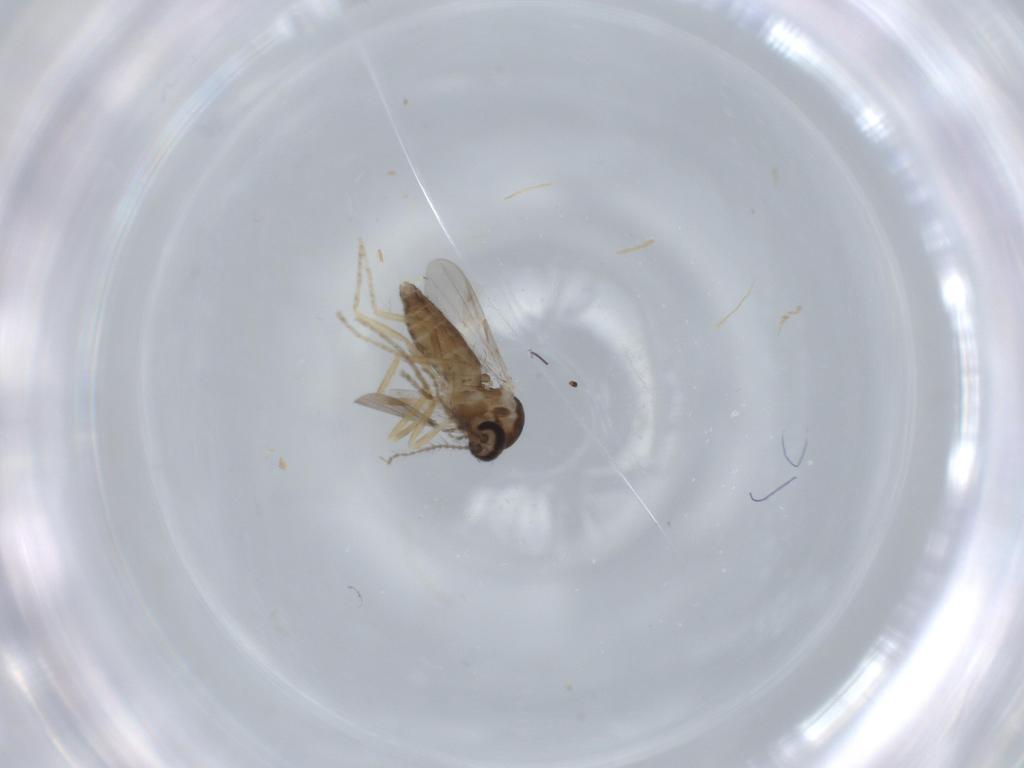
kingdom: Animalia
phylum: Arthropoda
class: Insecta
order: Diptera
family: Ceratopogonidae
